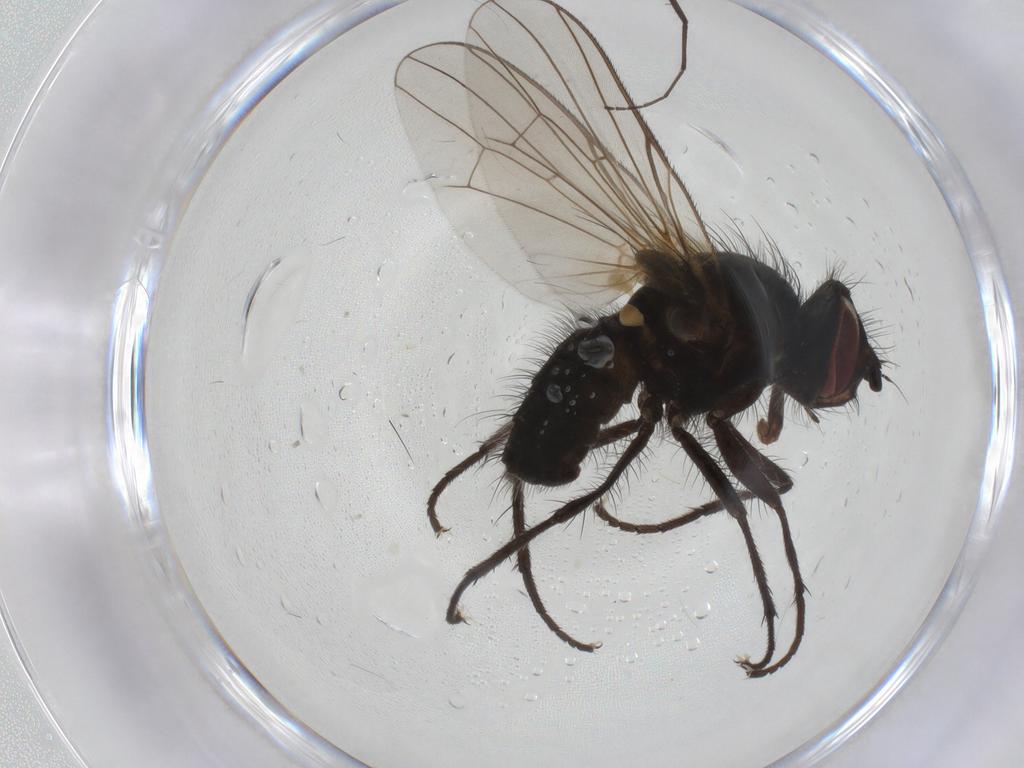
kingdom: Animalia
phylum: Arthropoda
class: Insecta
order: Diptera
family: Anthomyiidae
